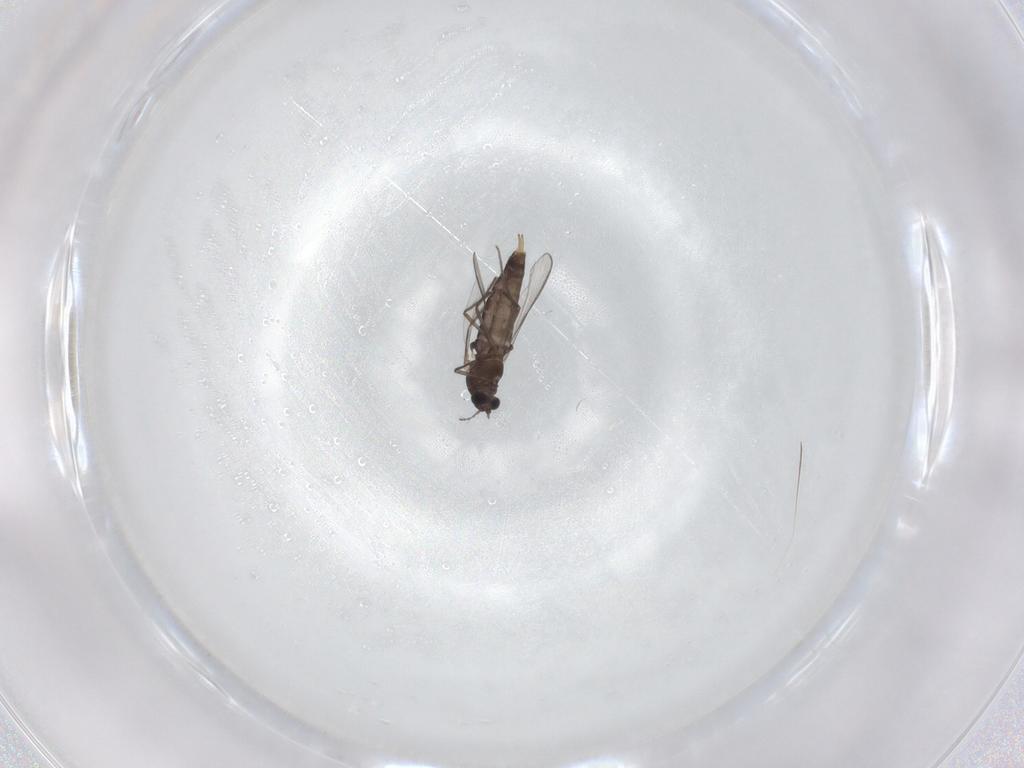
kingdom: Animalia
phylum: Arthropoda
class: Insecta
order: Diptera
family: Chironomidae
